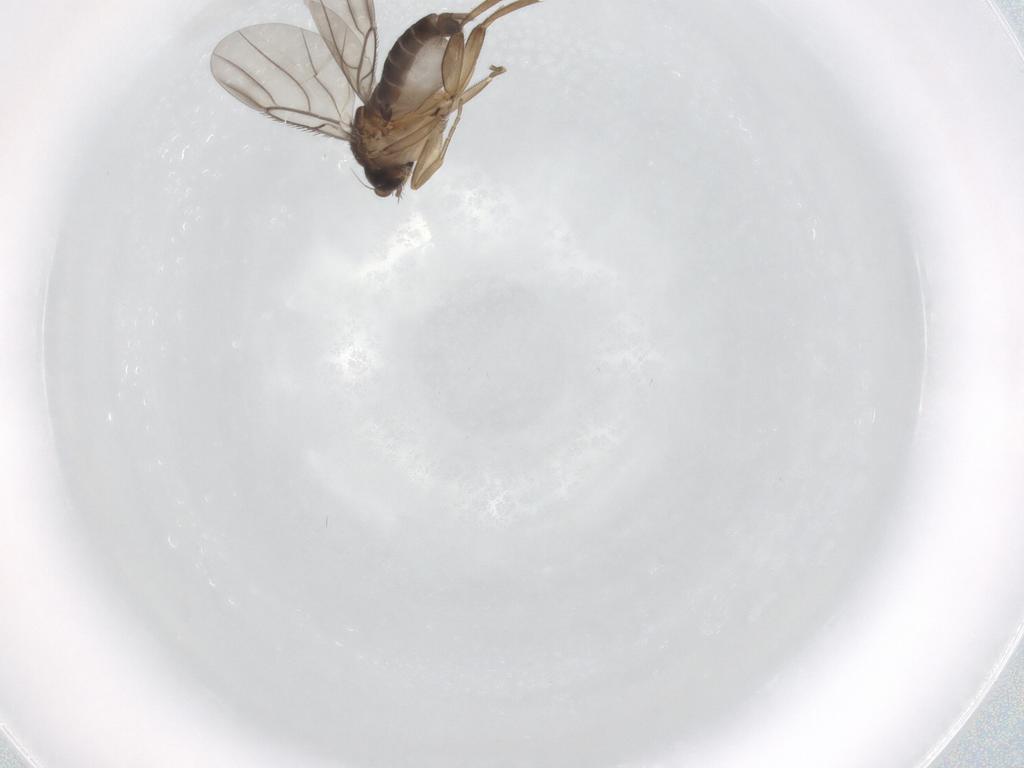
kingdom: Animalia
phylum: Arthropoda
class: Insecta
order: Diptera
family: Phoridae
